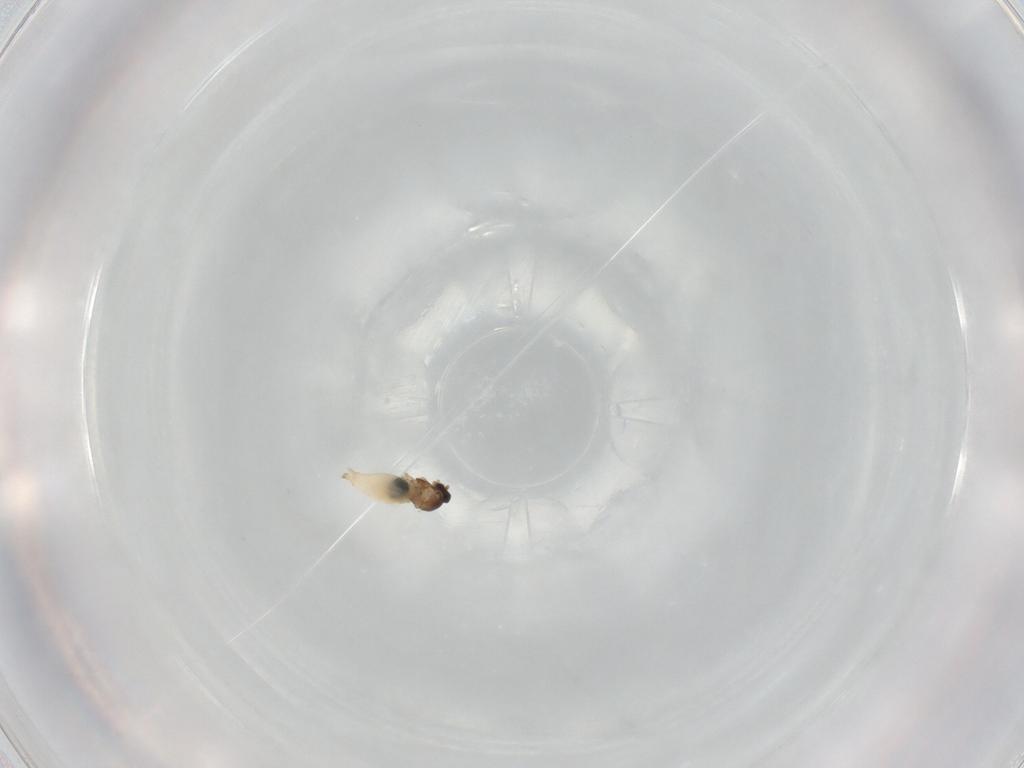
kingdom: Animalia
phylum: Arthropoda
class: Insecta
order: Diptera
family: Cecidomyiidae
